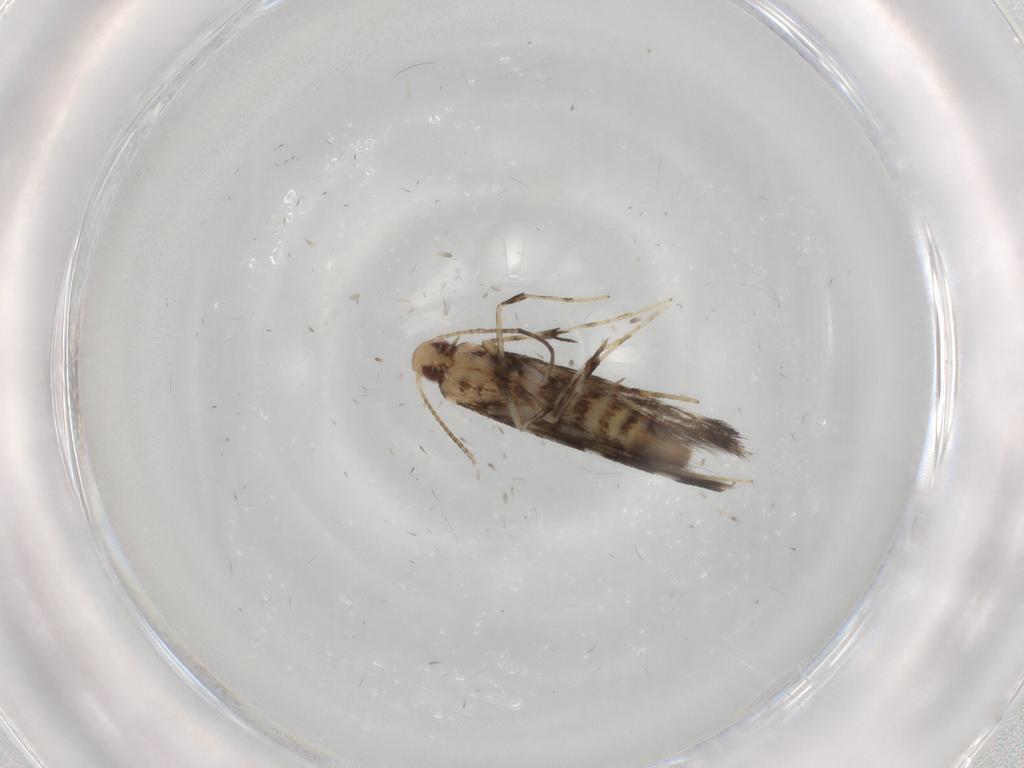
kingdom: Animalia
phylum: Arthropoda
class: Insecta
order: Lepidoptera
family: Gracillariidae
